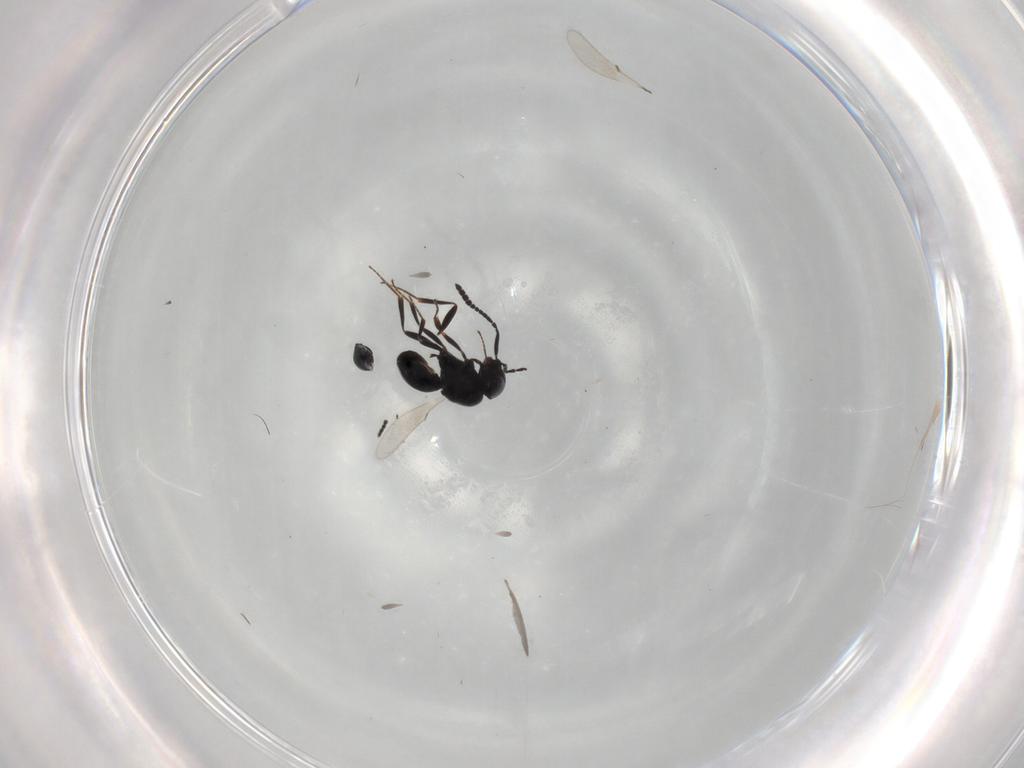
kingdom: Animalia
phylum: Arthropoda
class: Insecta
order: Hymenoptera
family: Scelionidae
